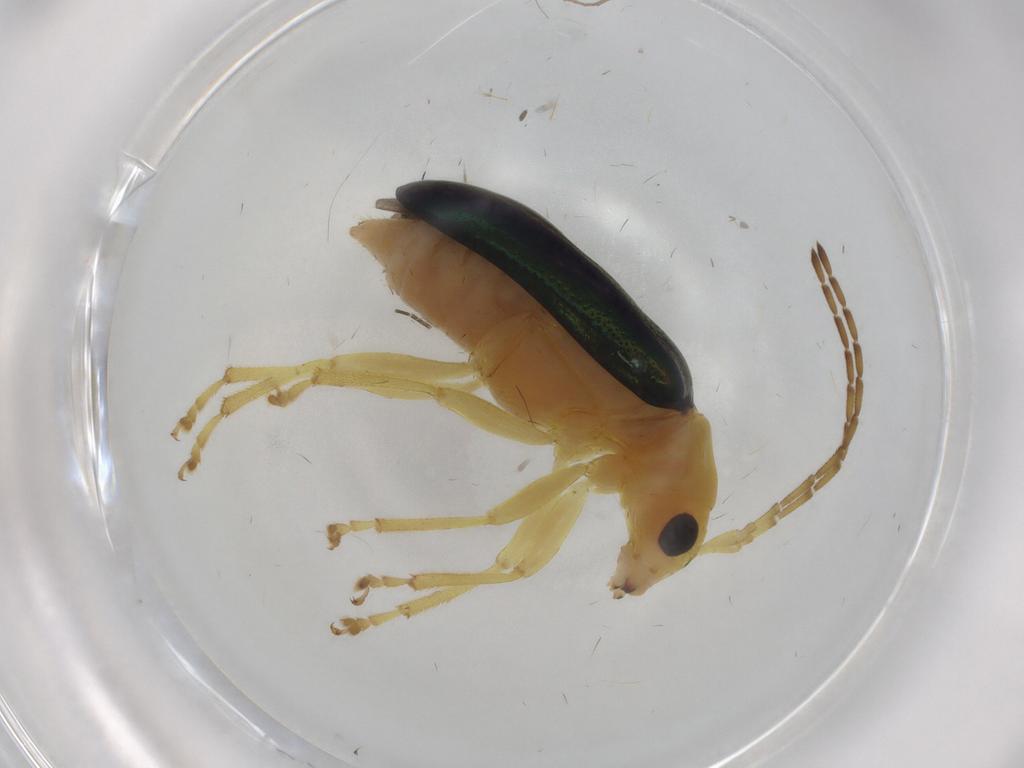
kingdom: Animalia
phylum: Arthropoda
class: Insecta
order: Coleoptera
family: Chrysomelidae
